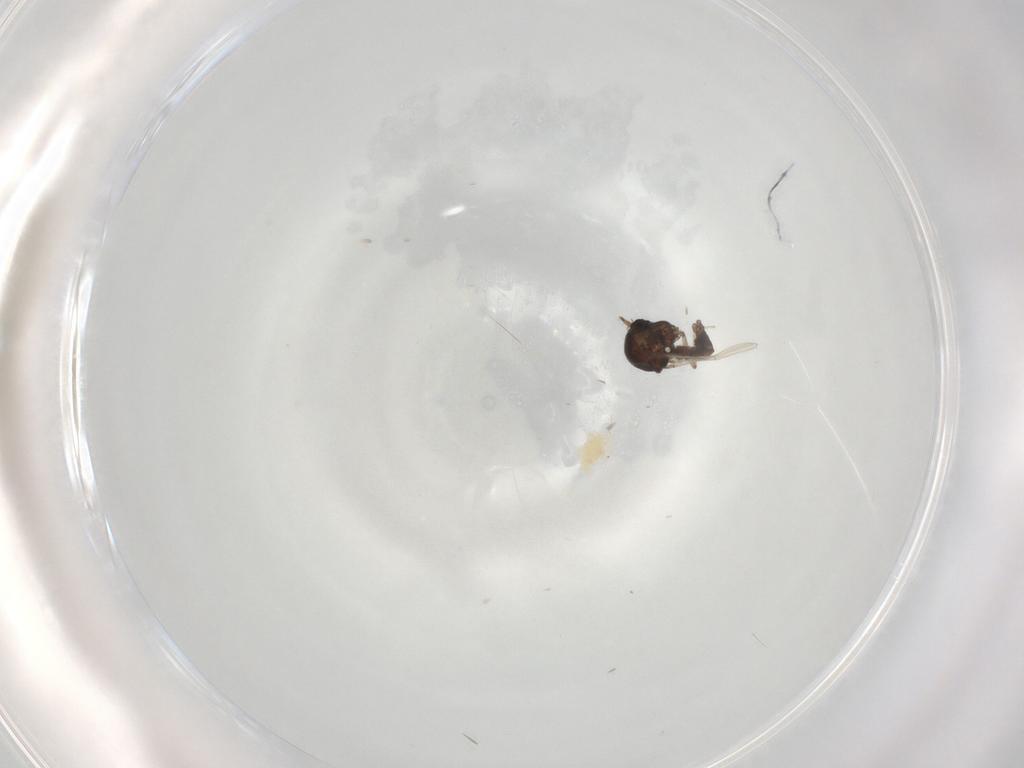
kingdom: Animalia
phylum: Arthropoda
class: Insecta
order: Diptera
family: Ceratopogonidae
